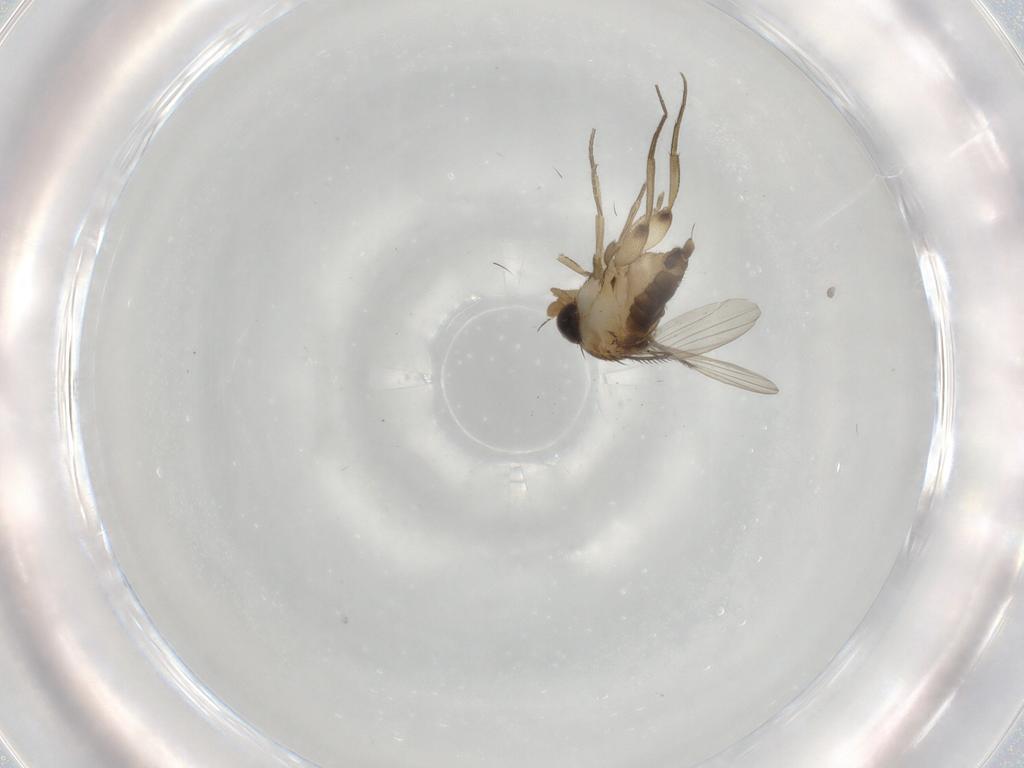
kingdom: Animalia
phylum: Arthropoda
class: Insecta
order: Diptera
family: Phoridae
